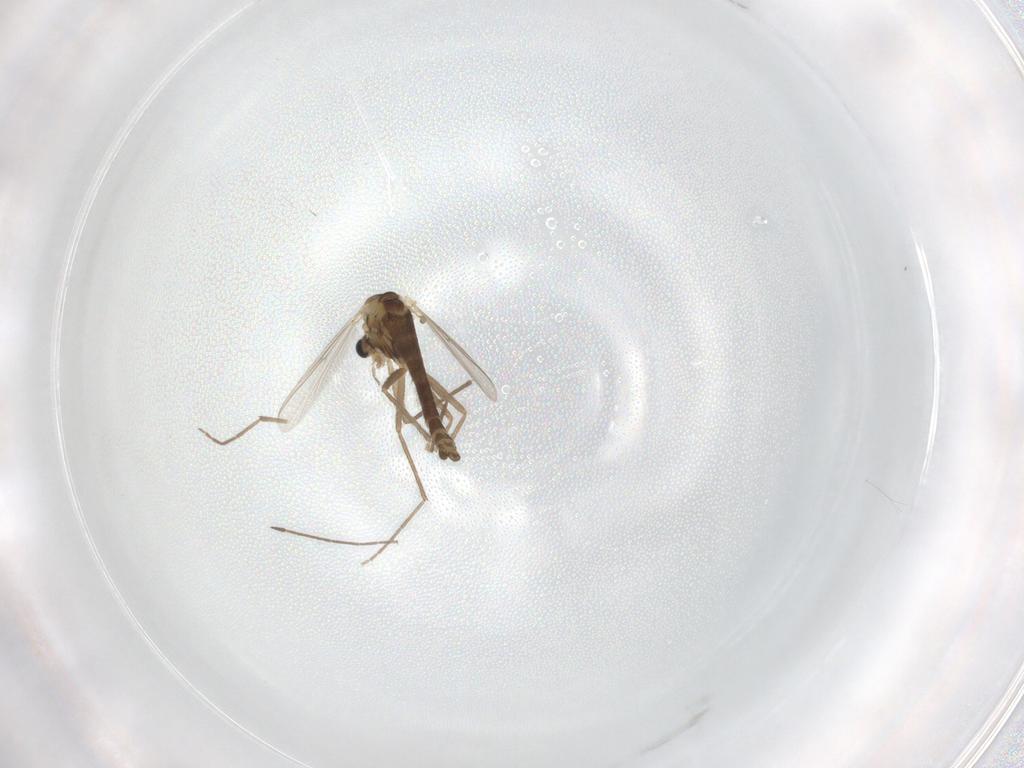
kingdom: Animalia
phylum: Arthropoda
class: Insecta
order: Diptera
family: Chironomidae
